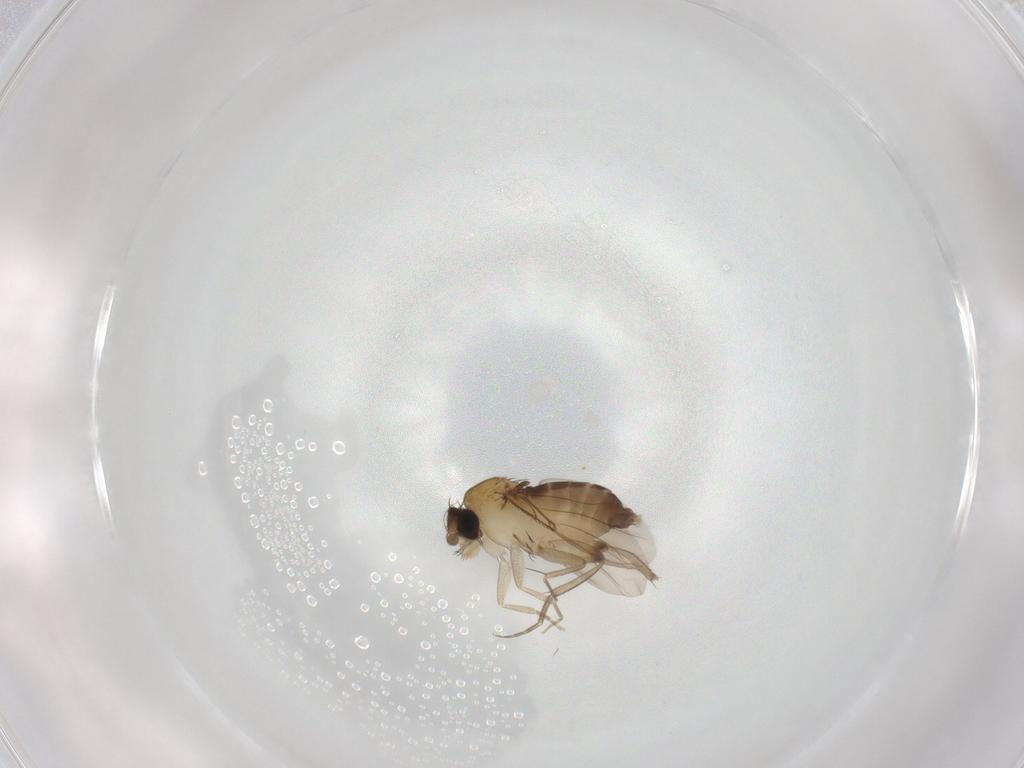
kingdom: Animalia
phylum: Arthropoda
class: Insecta
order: Diptera
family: Phoridae
